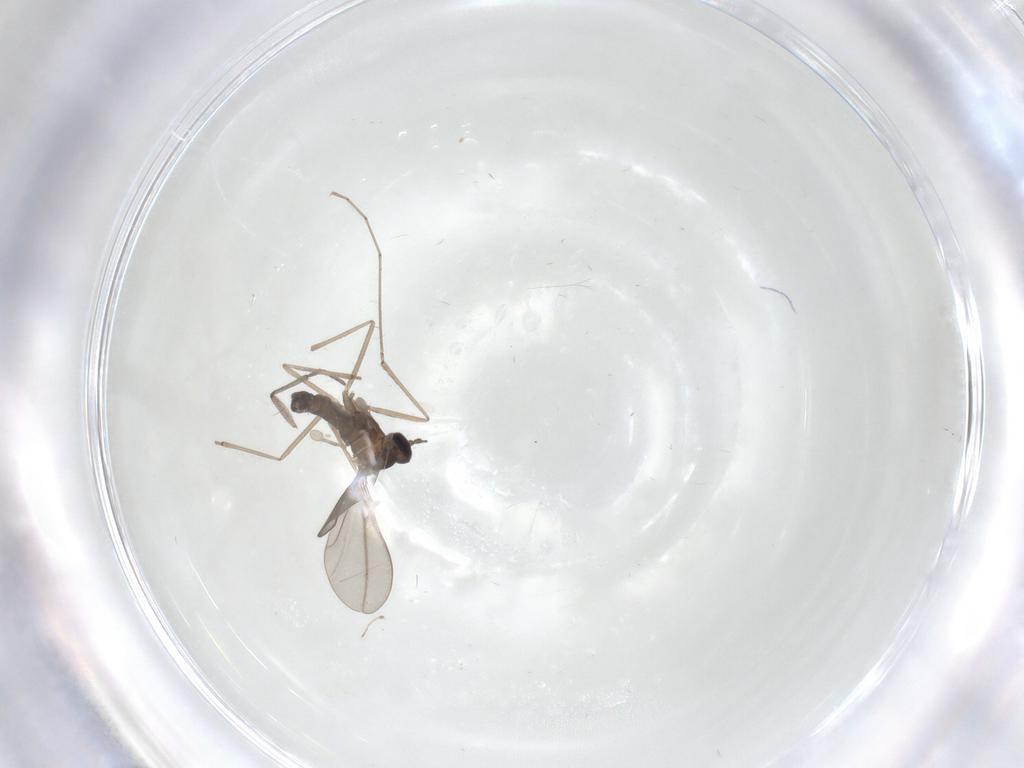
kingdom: Animalia
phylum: Arthropoda
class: Insecta
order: Diptera
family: Sciaridae
